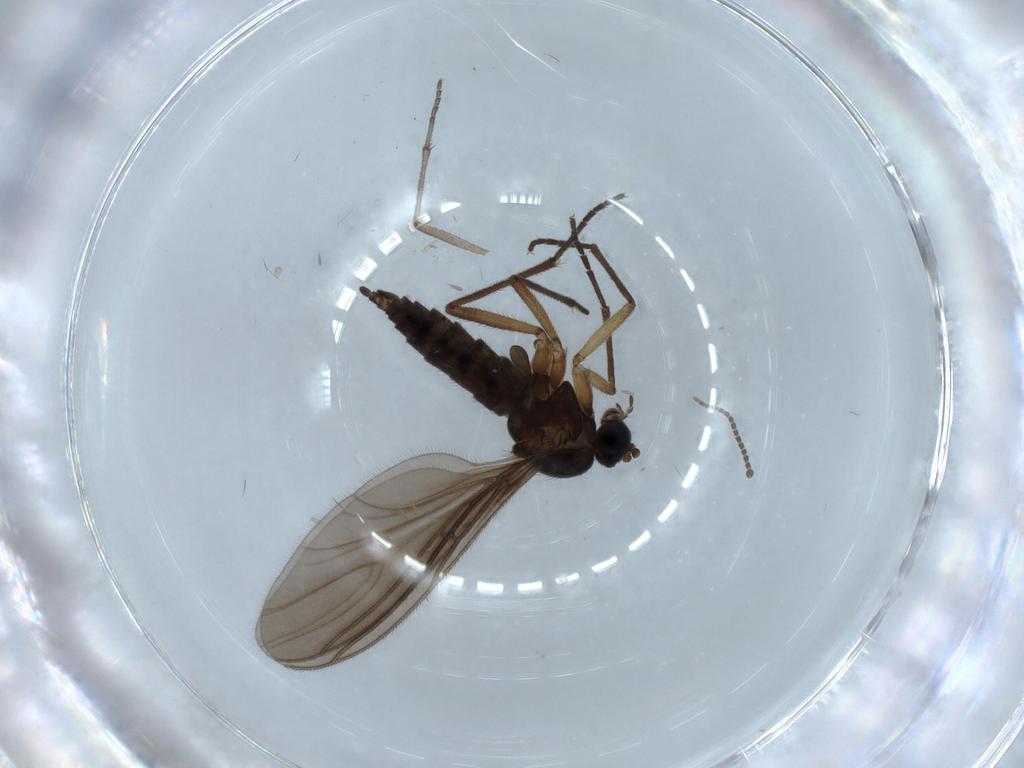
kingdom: Animalia
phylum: Arthropoda
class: Insecta
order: Diptera
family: Sciaridae
